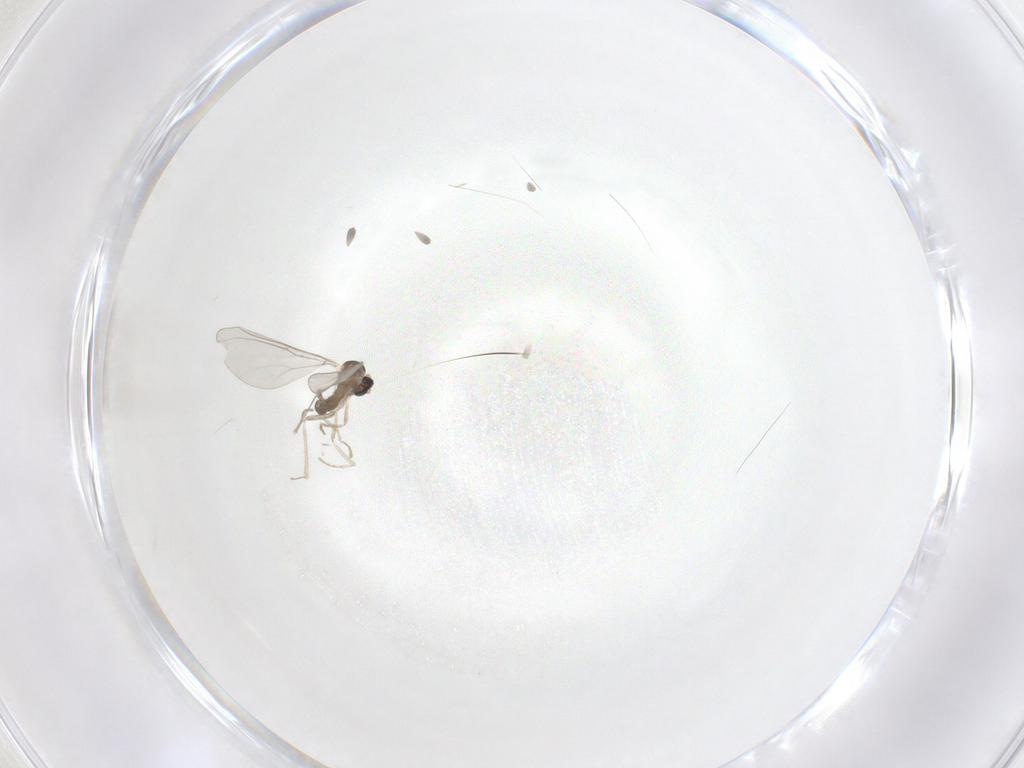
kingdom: Animalia
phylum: Arthropoda
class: Insecta
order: Diptera
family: Cecidomyiidae
